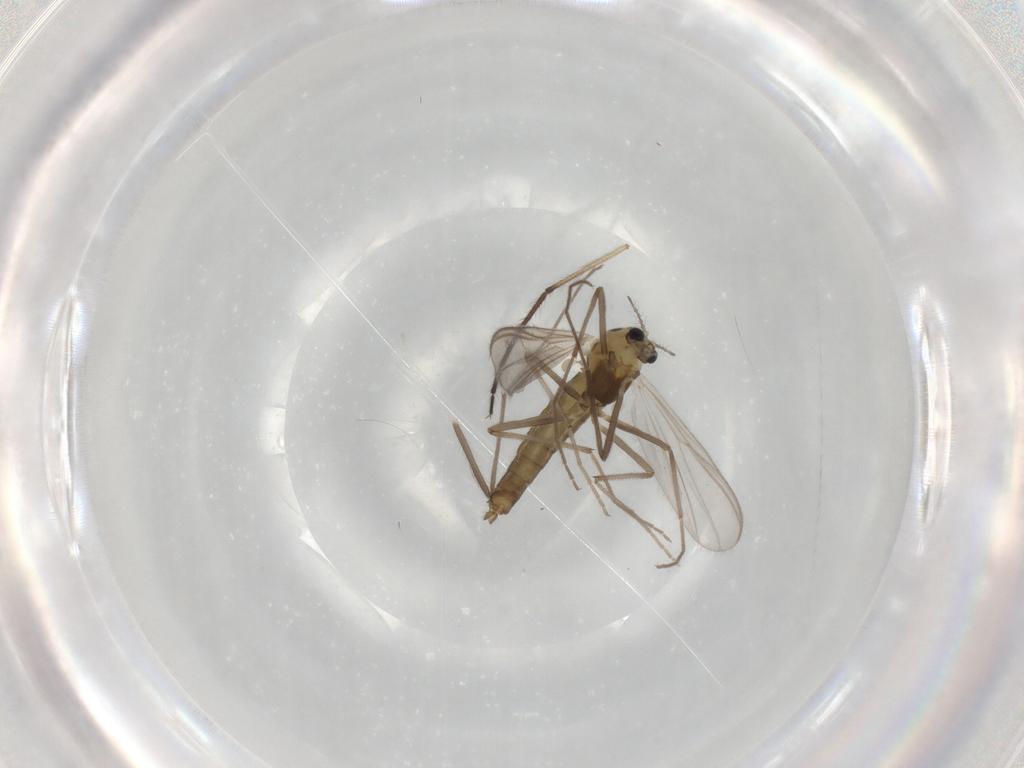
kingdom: Animalia
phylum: Arthropoda
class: Insecta
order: Diptera
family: Chironomidae
